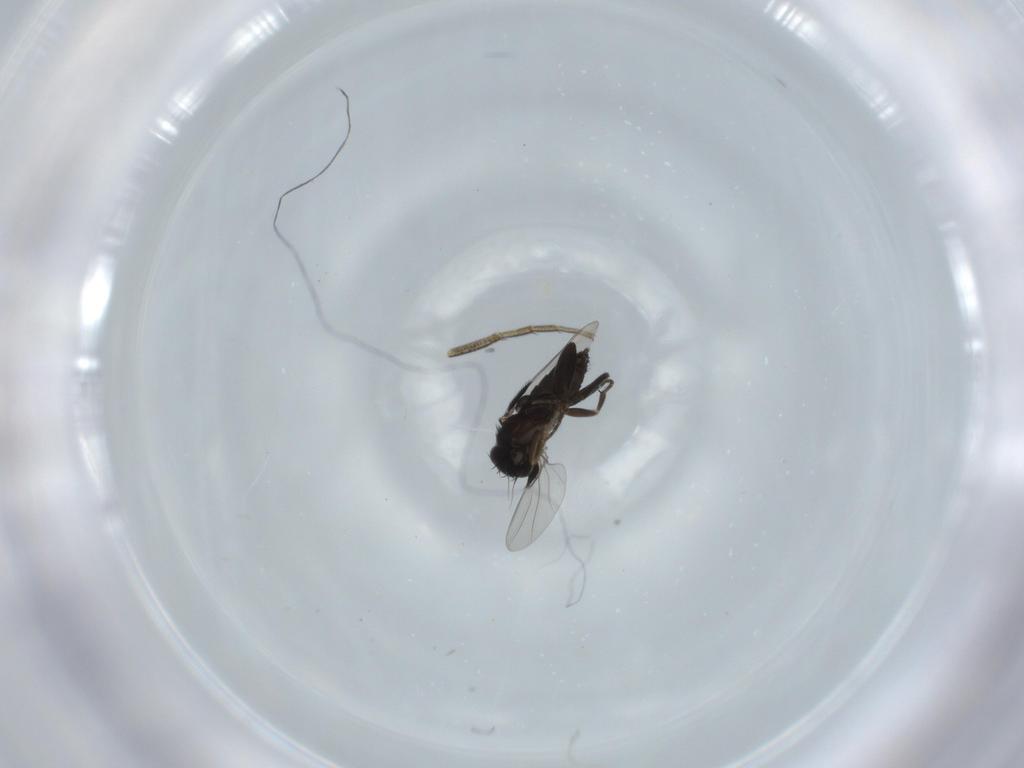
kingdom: Animalia
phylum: Arthropoda
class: Insecta
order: Diptera
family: Phoridae
